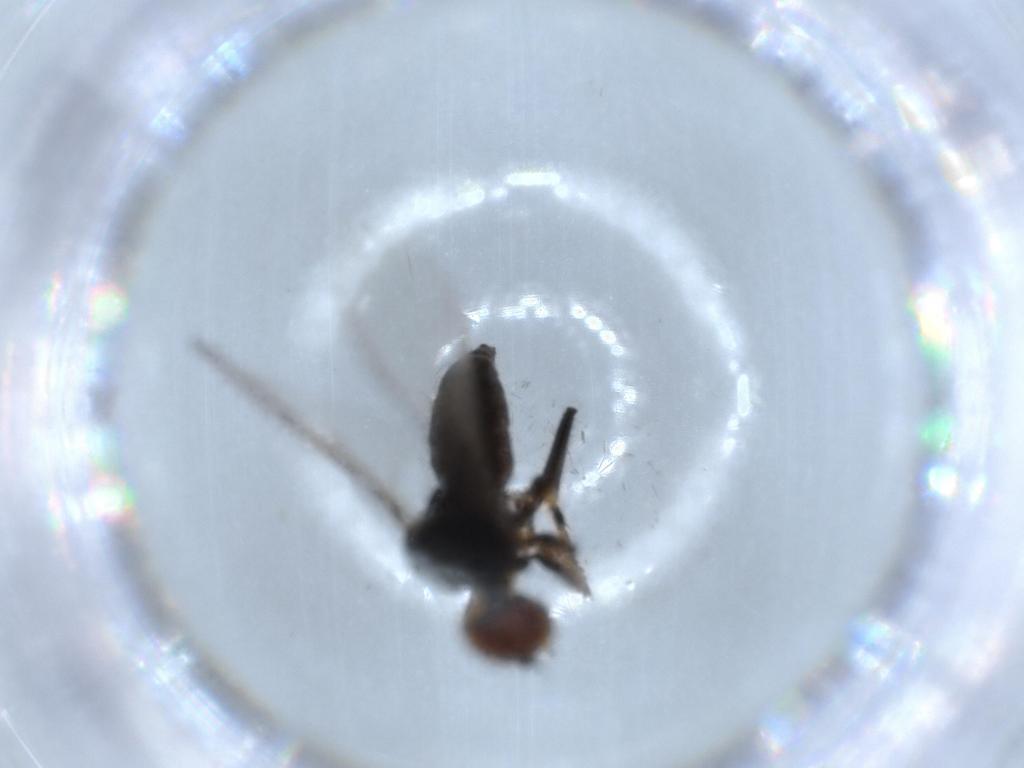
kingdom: Animalia
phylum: Arthropoda
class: Insecta
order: Diptera
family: Hybotidae
